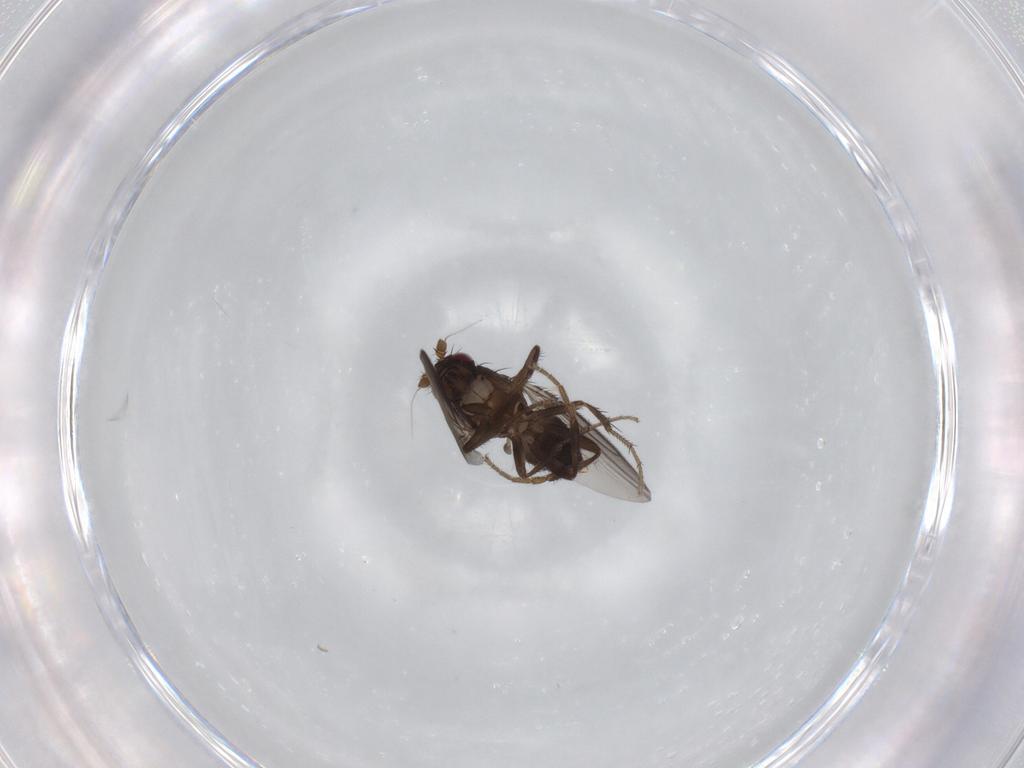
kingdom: Animalia
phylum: Arthropoda
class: Insecta
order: Diptera
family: Sphaeroceridae
